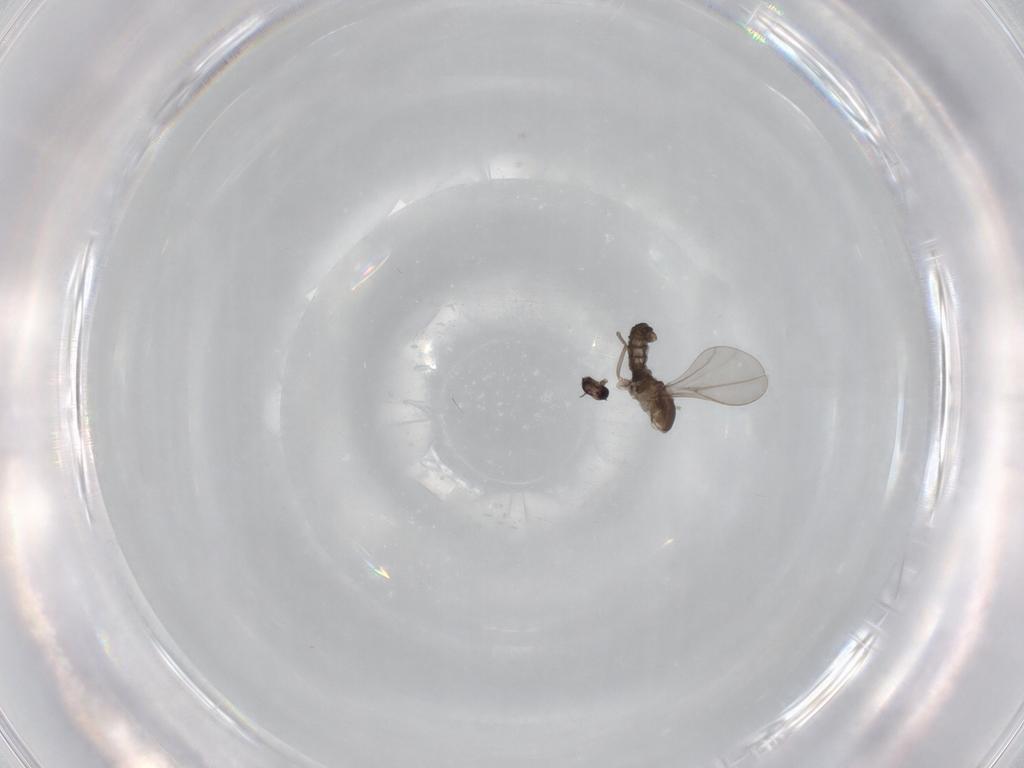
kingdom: Animalia
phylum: Arthropoda
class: Insecta
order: Diptera
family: Cecidomyiidae
